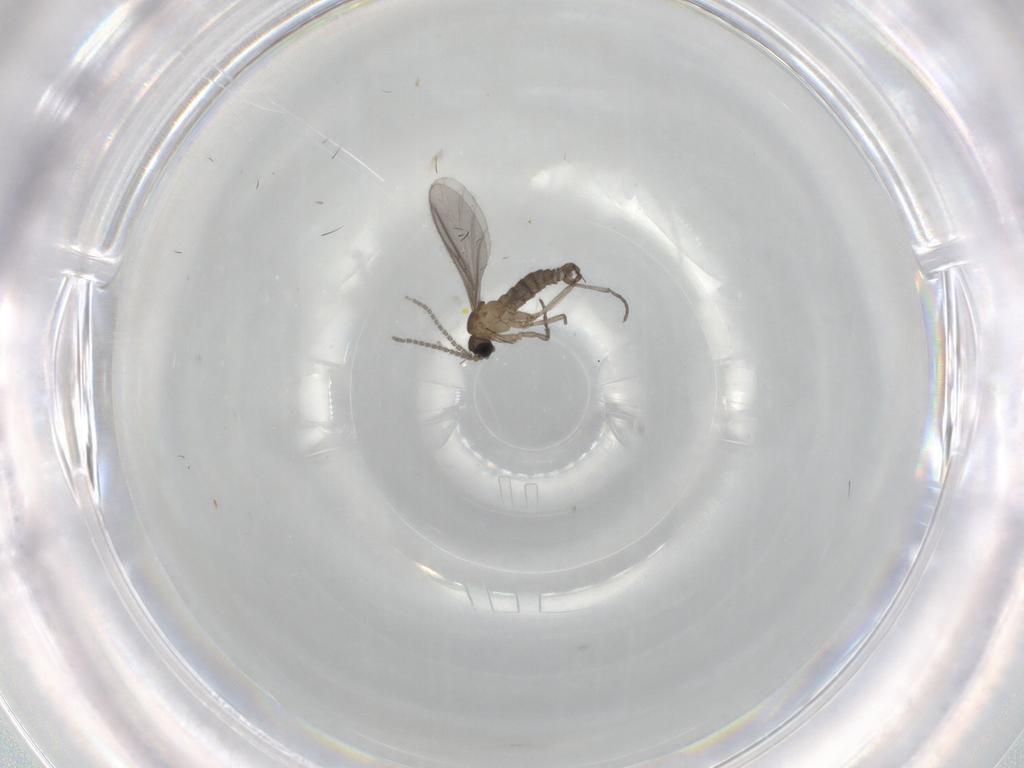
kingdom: Animalia
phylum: Arthropoda
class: Insecta
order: Diptera
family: Sciaridae
